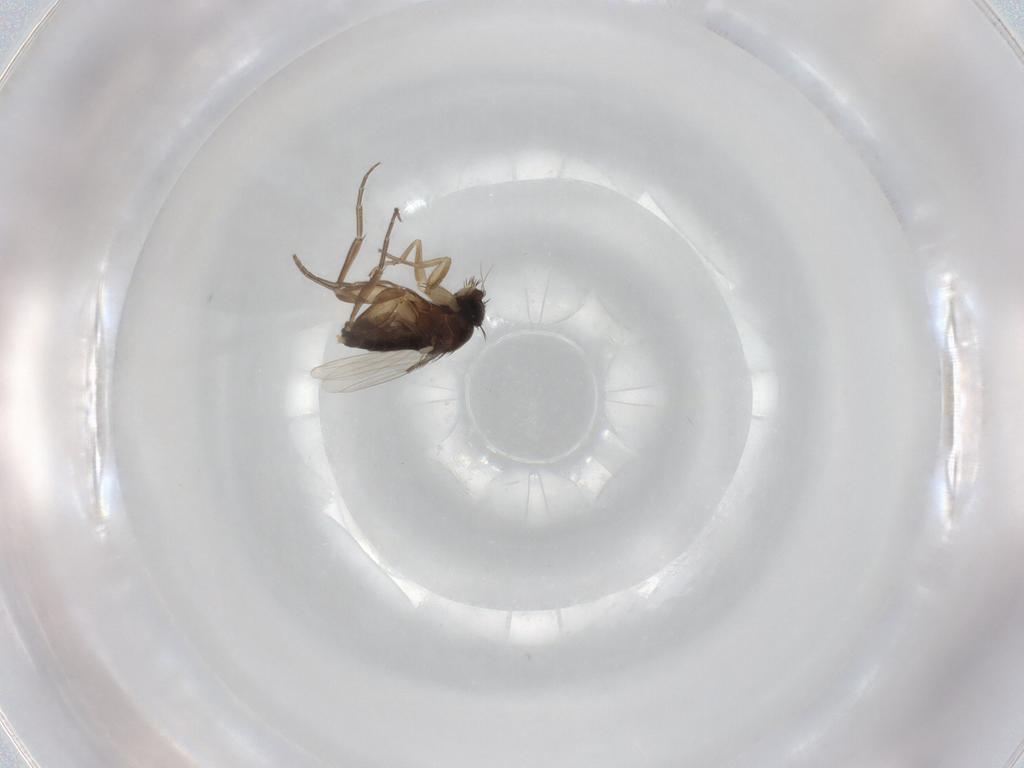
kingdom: Animalia
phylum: Arthropoda
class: Insecta
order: Diptera
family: Phoridae
